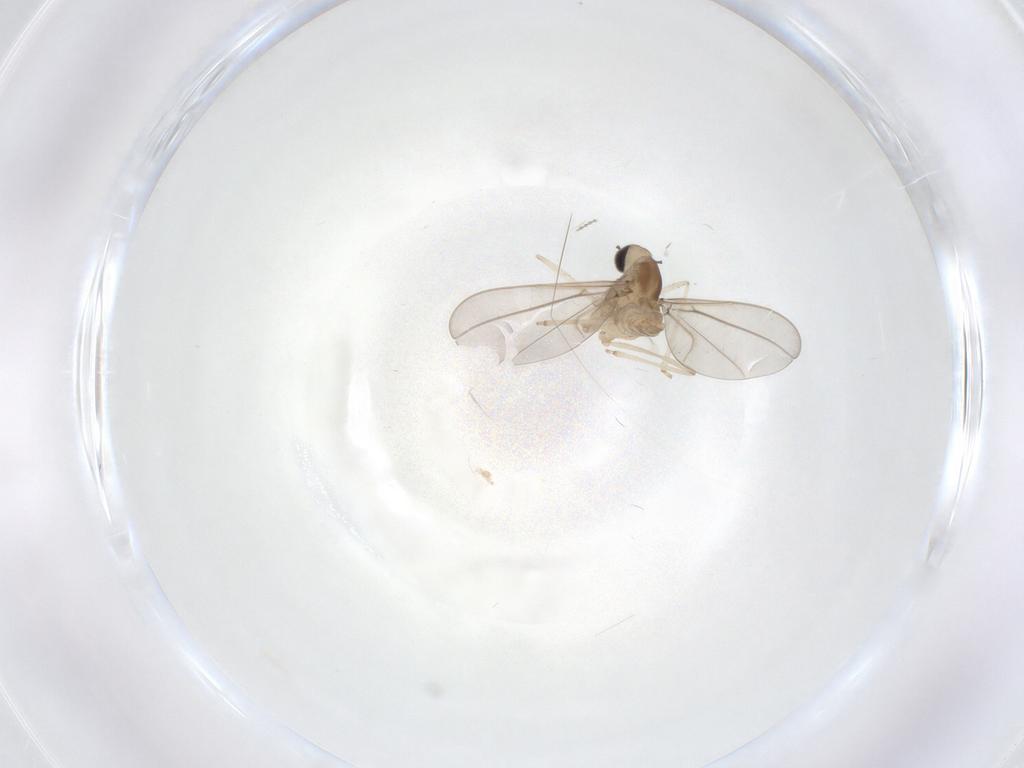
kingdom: Animalia
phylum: Arthropoda
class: Insecta
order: Diptera
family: Cecidomyiidae
